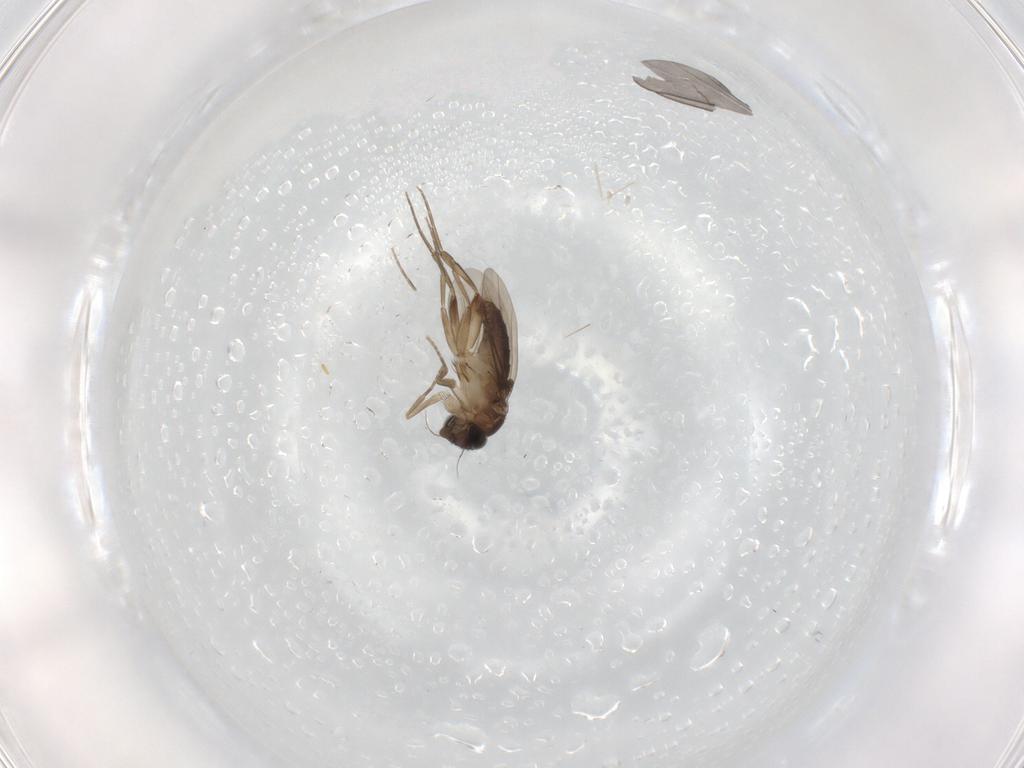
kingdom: Animalia
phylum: Arthropoda
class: Insecta
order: Diptera
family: Phoridae
